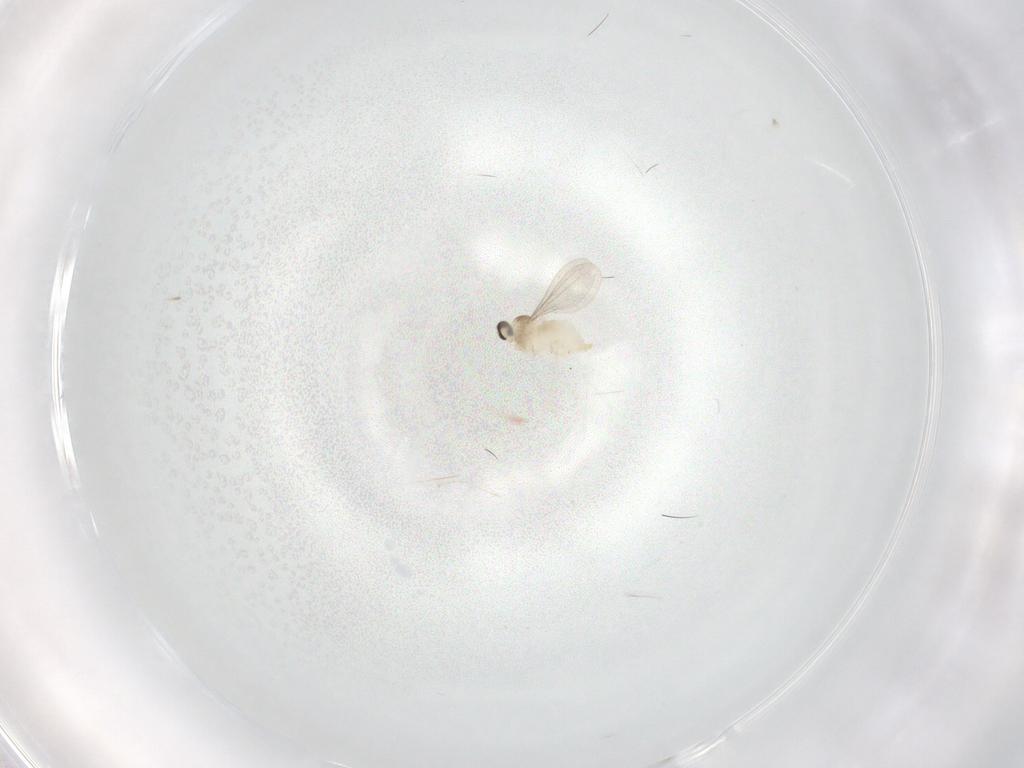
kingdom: Animalia
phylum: Arthropoda
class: Insecta
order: Diptera
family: Cecidomyiidae
